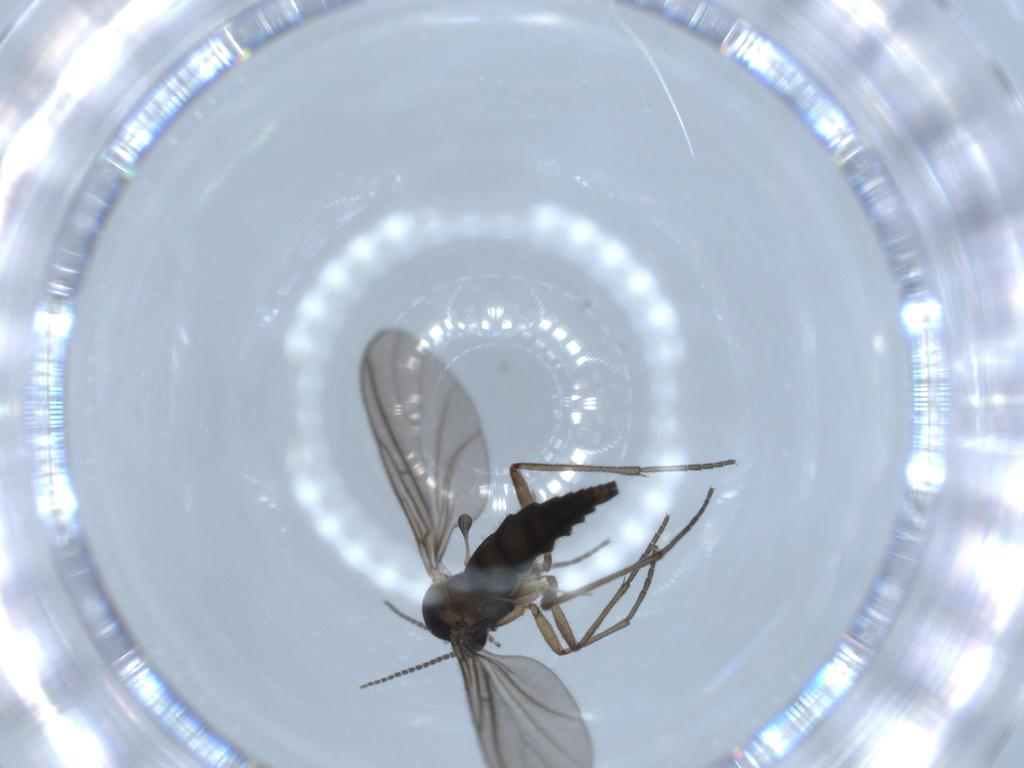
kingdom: Animalia
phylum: Arthropoda
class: Insecta
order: Diptera
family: Sciaridae
